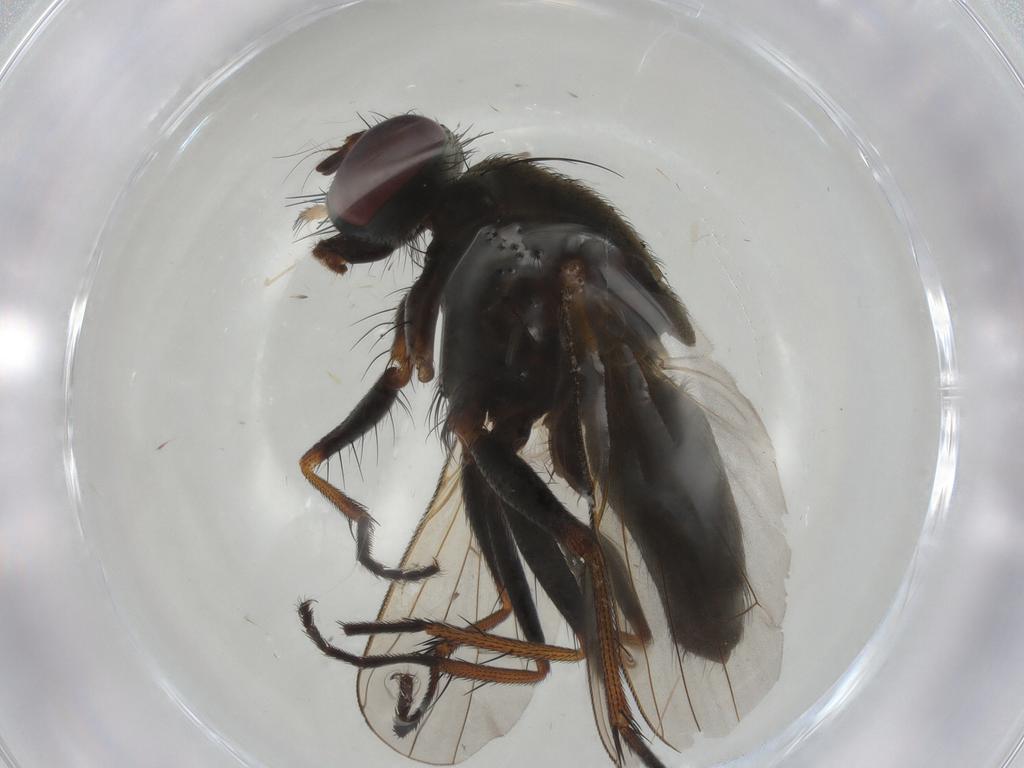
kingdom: Animalia
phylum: Arthropoda
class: Insecta
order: Diptera
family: Muscidae
